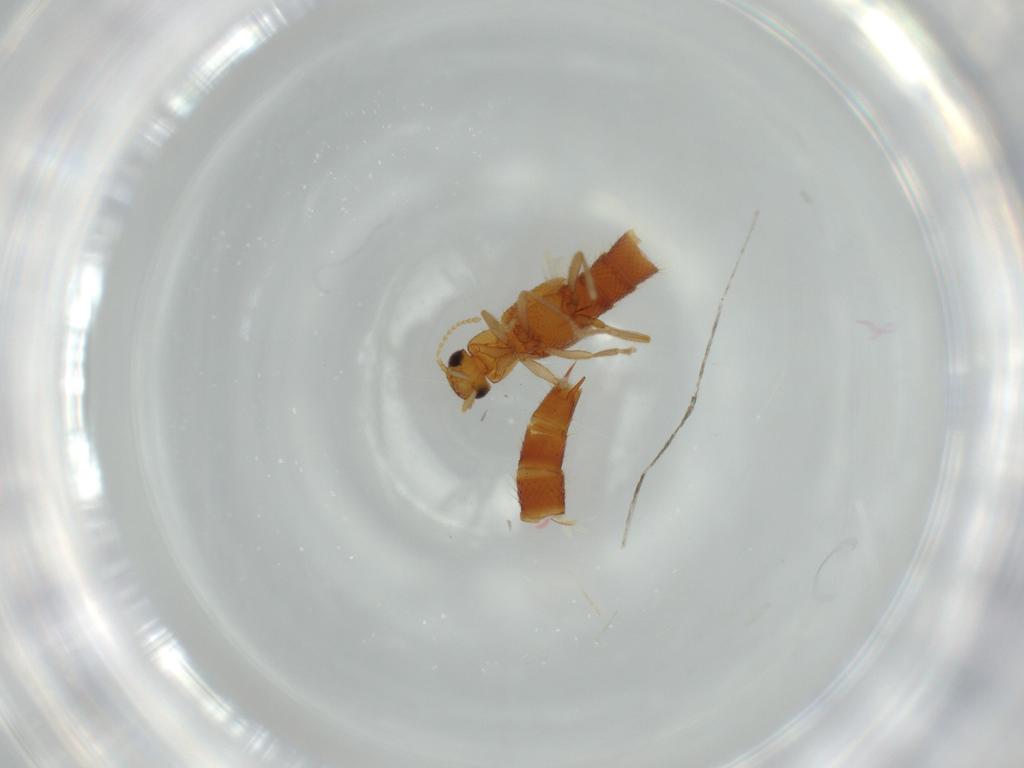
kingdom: Animalia
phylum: Arthropoda
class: Insecta
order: Coleoptera
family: Staphylinidae
